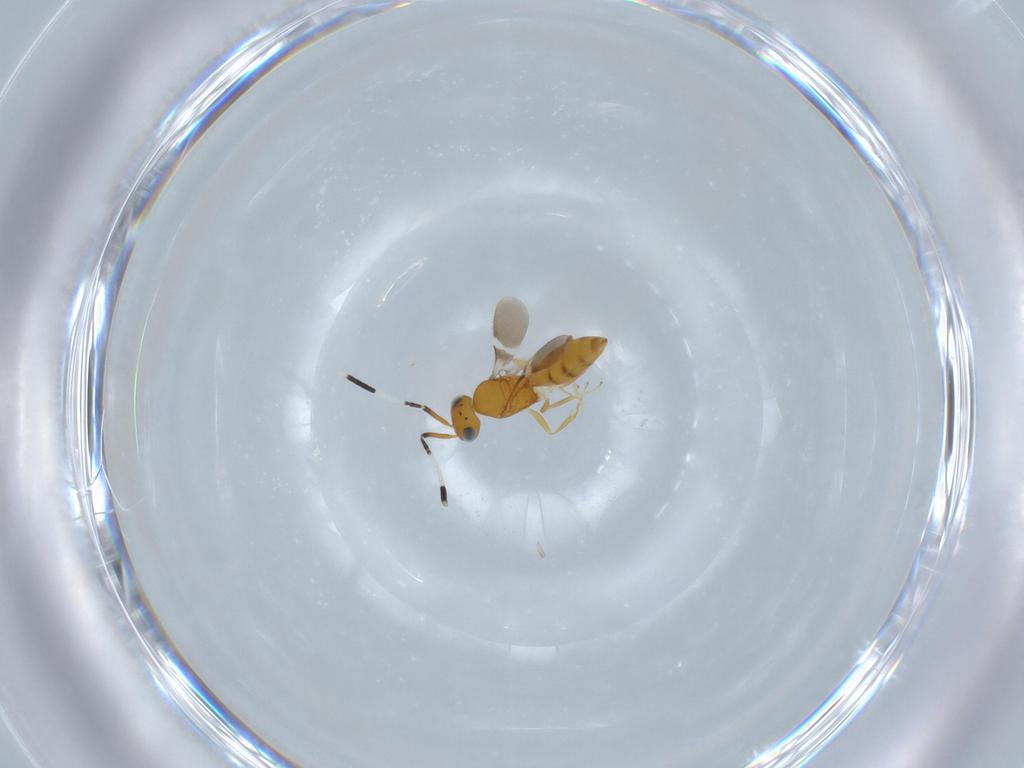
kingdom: Animalia
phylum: Arthropoda
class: Insecta
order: Hymenoptera
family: Scelionidae
